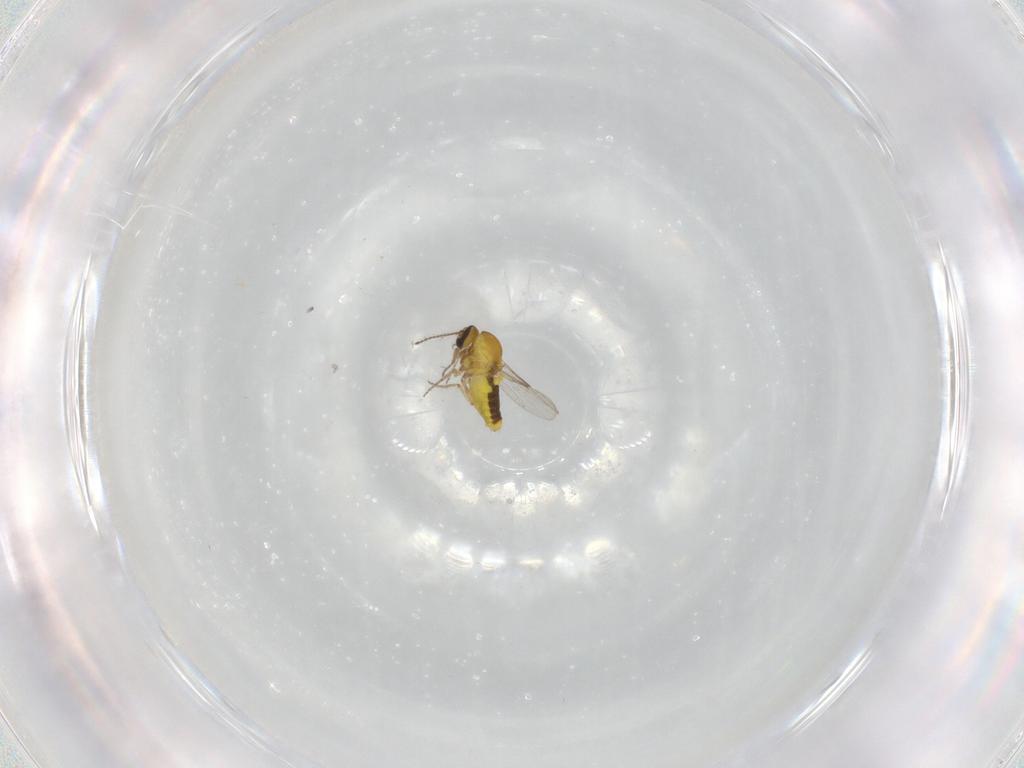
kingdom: Animalia
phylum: Arthropoda
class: Insecta
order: Diptera
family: Ceratopogonidae
